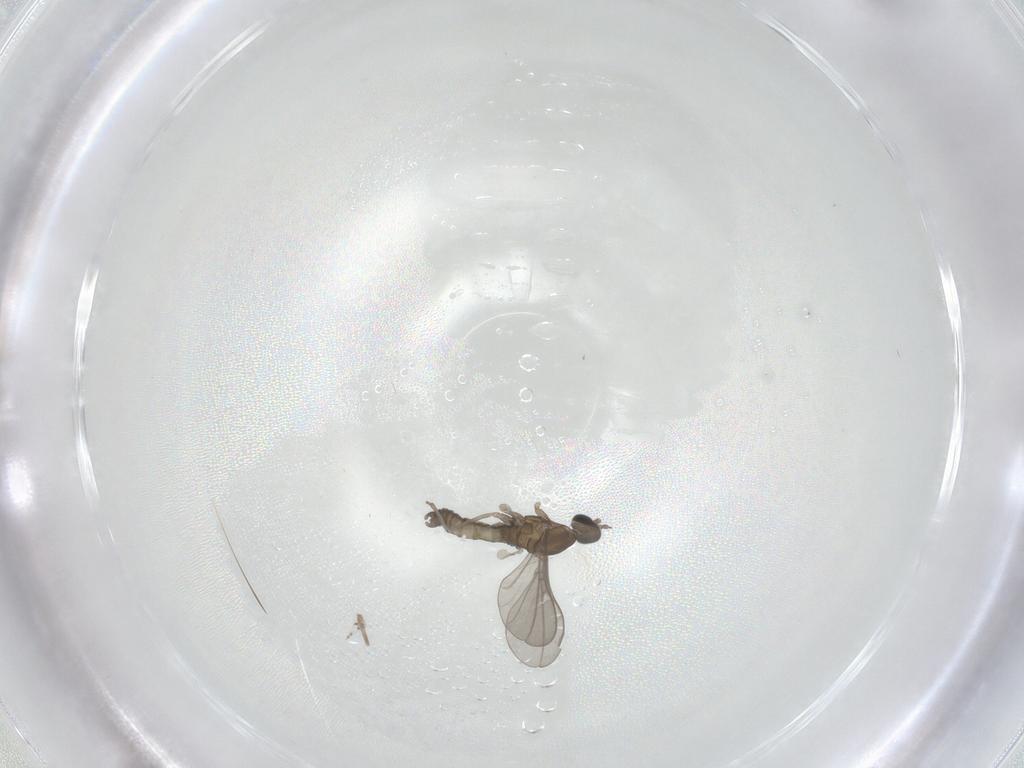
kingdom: Animalia
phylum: Arthropoda
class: Insecta
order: Diptera
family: Cecidomyiidae
